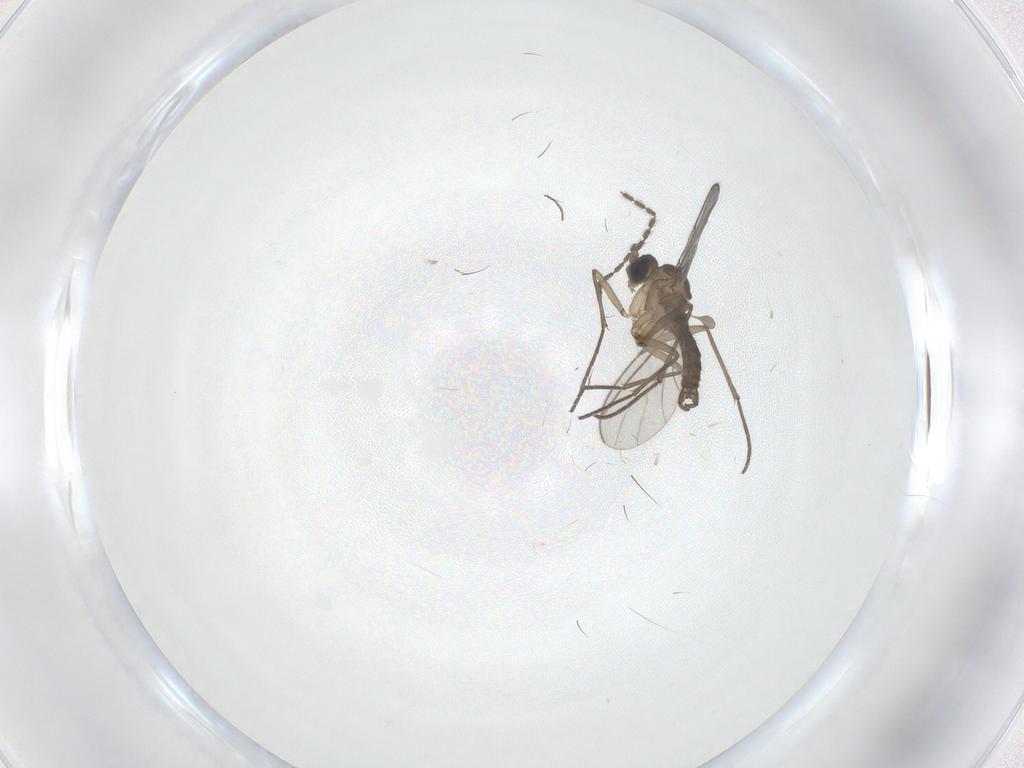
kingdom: Animalia
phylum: Arthropoda
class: Insecta
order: Diptera
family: Sciaridae
